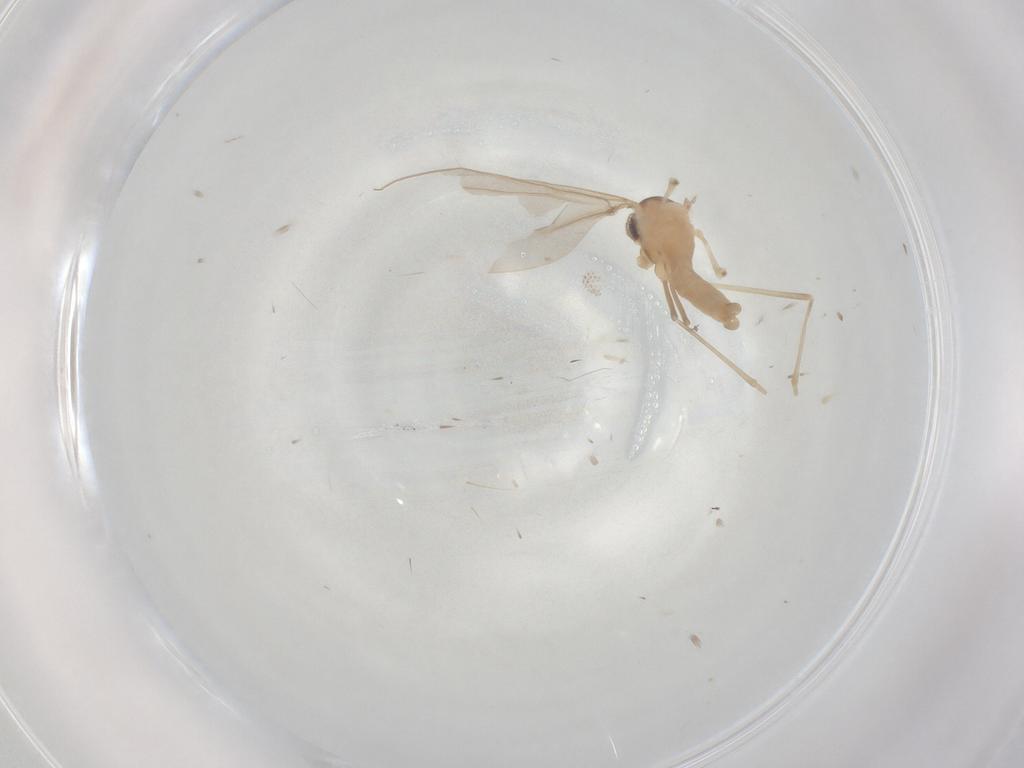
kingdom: Animalia
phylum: Arthropoda
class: Insecta
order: Diptera
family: Cecidomyiidae
